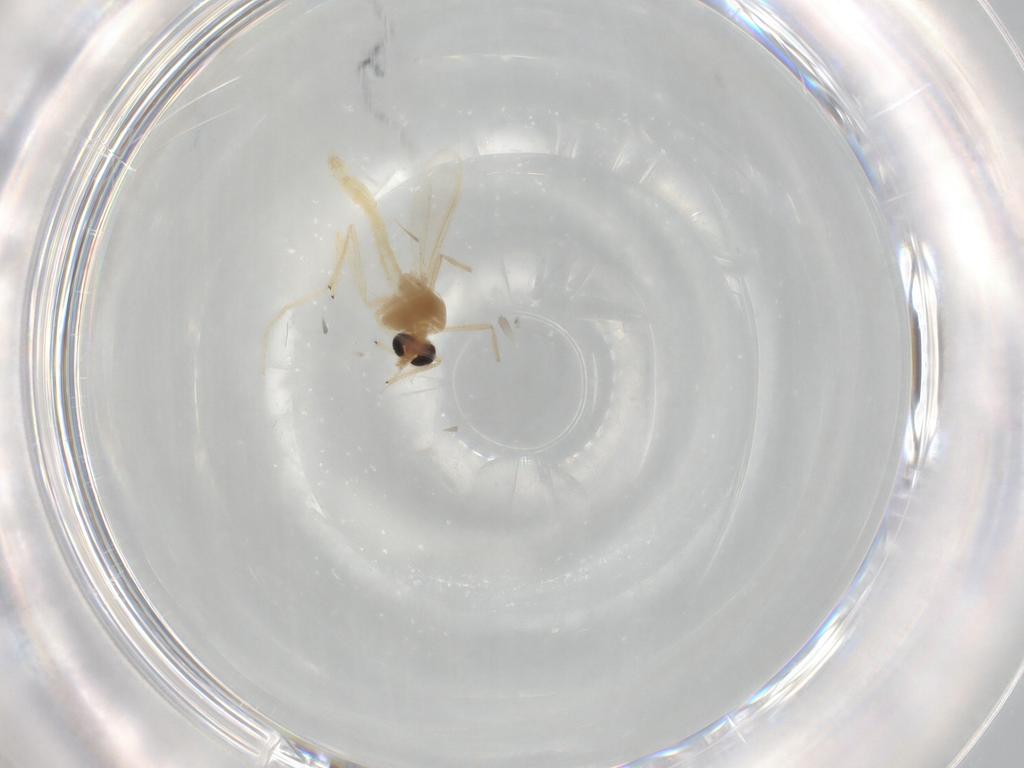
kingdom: Animalia
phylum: Arthropoda
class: Insecta
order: Diptera
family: Chironomidae
